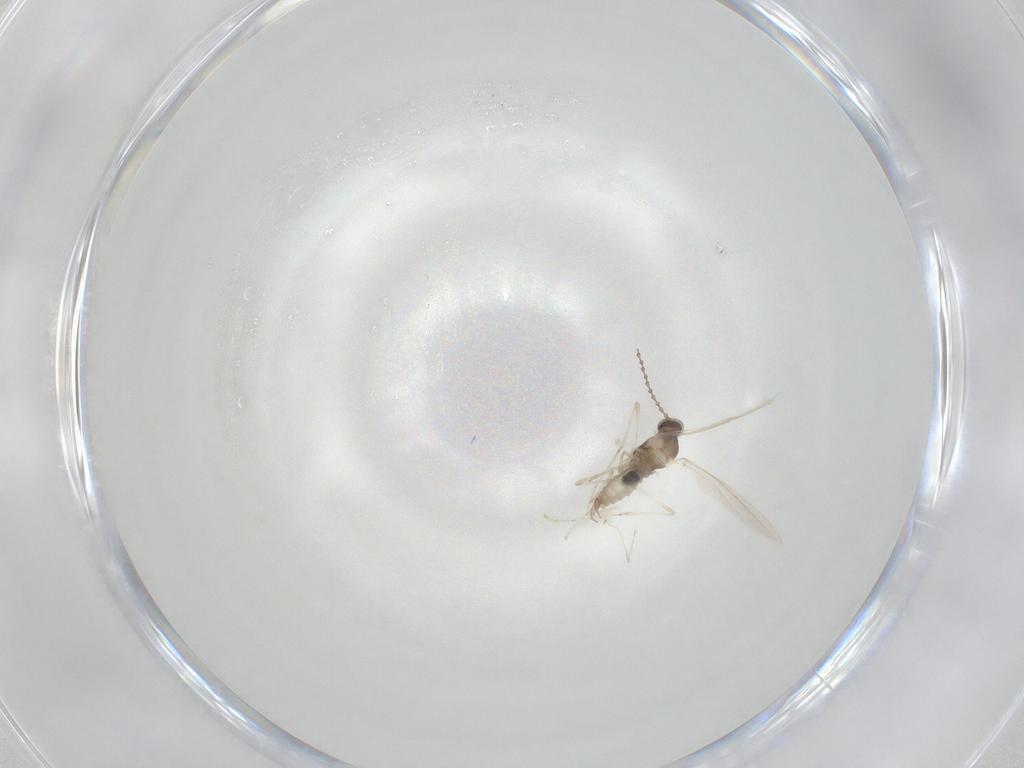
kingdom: Animalia
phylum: Arthropoda
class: Insecta
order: Diptera
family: Cecidomyiidae
